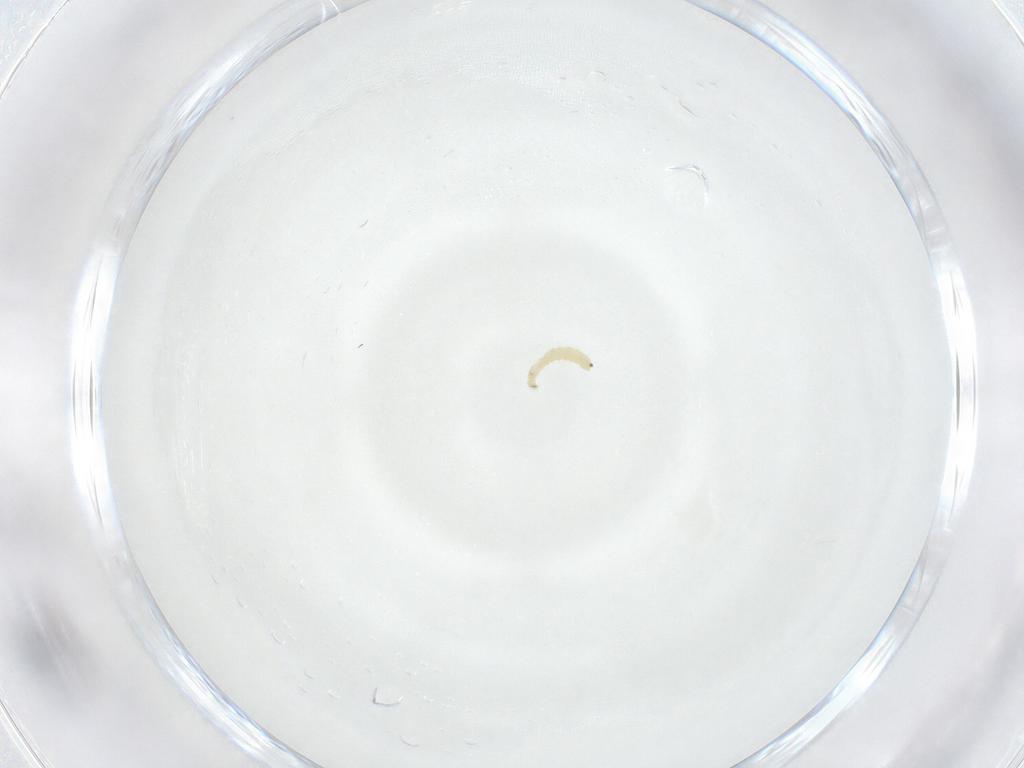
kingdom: Animalia
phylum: Arthropoda
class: Insecta
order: Diptera
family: Sarcophagidae
